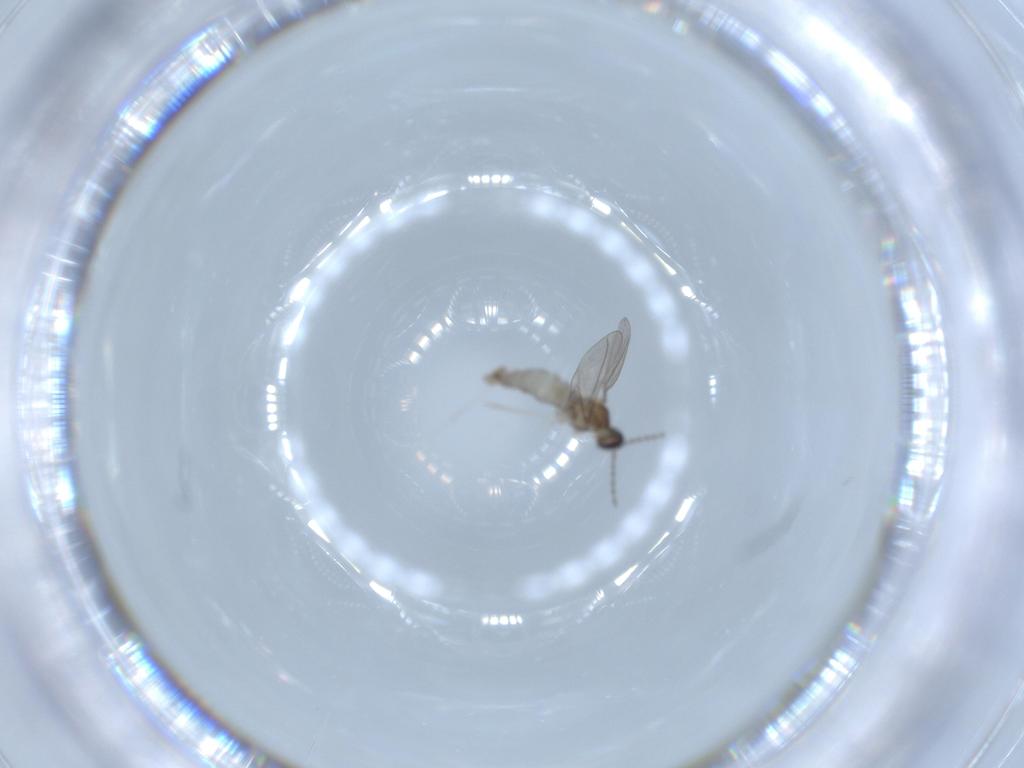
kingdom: Animalia
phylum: Arthropoda
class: Insecta
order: Diptera
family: Cecidomyiidae
